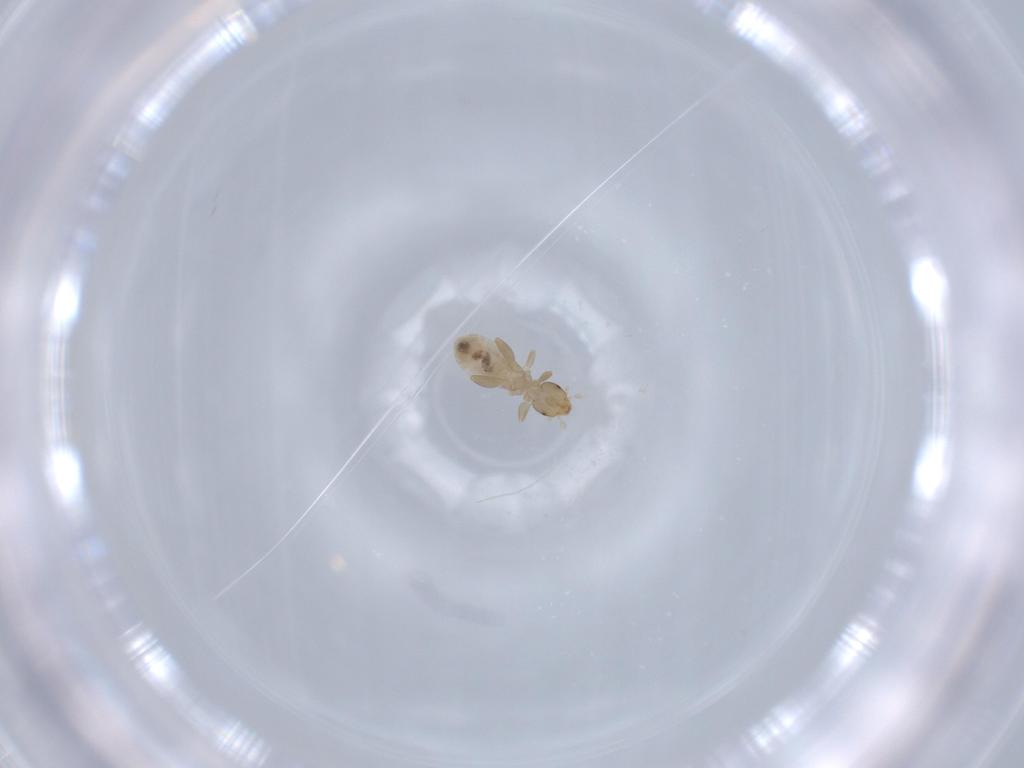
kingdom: Animalia
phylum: Arthropoda
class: Insecta
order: Psocodea
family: Liposcelididae
